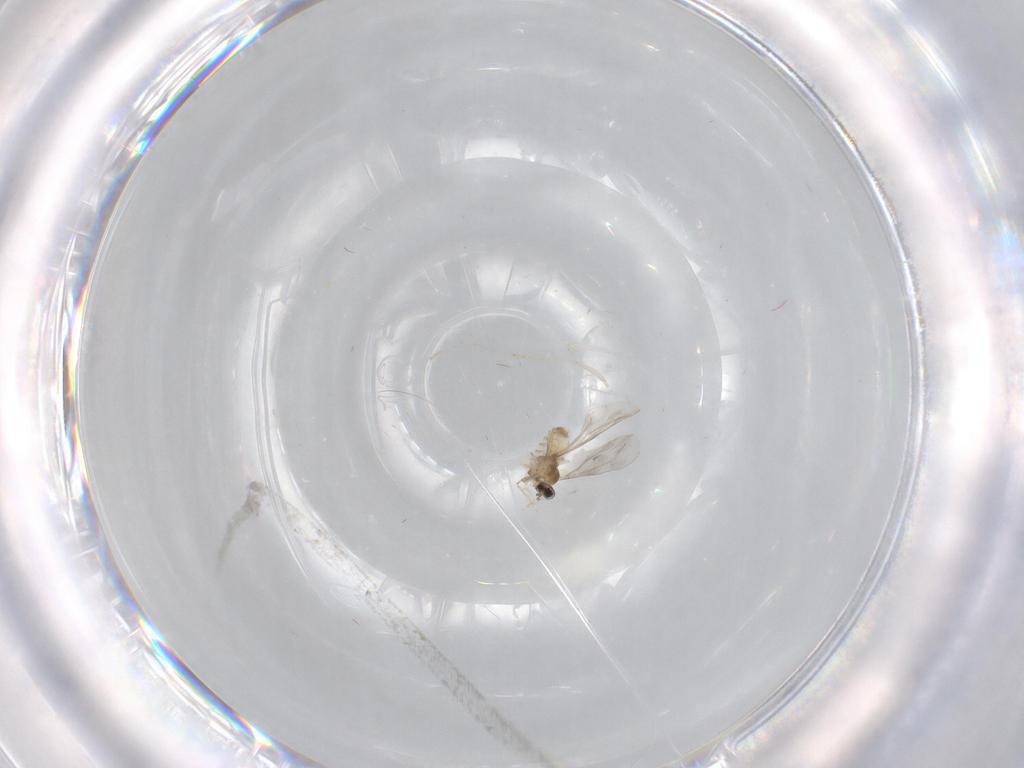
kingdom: Animalia
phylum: Arthropoda
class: Insecta
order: Diptera
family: Cecidomyiidae
